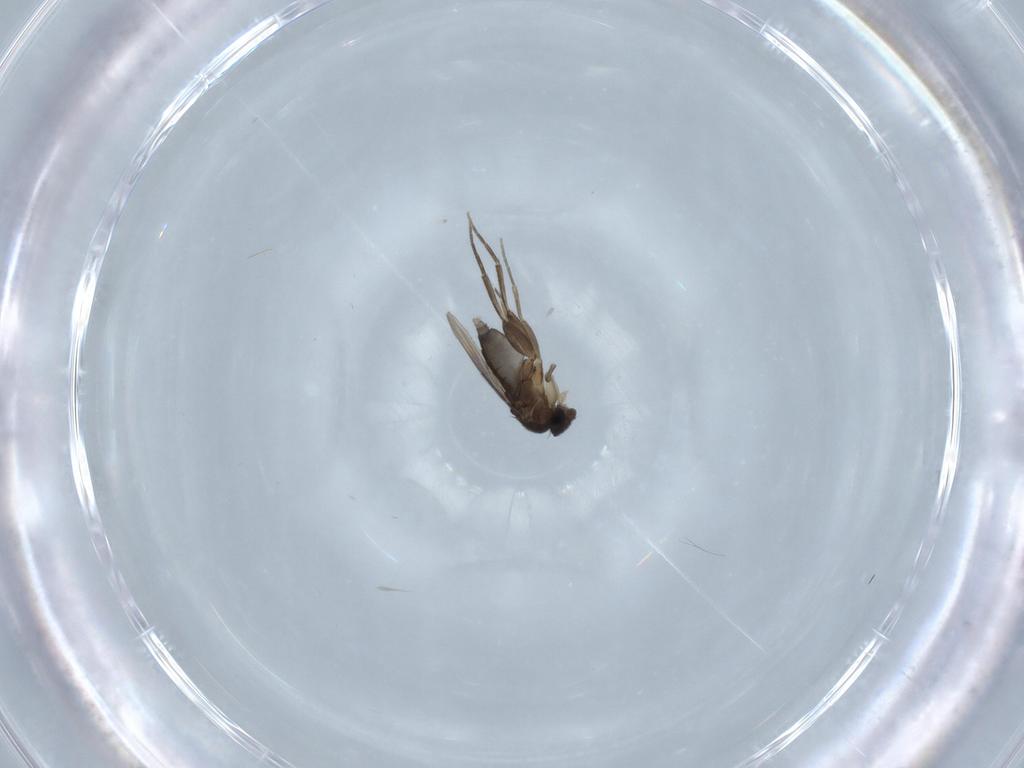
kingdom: Animalia
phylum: Arthropoda
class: Insecta
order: Diptera
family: Phoridae
